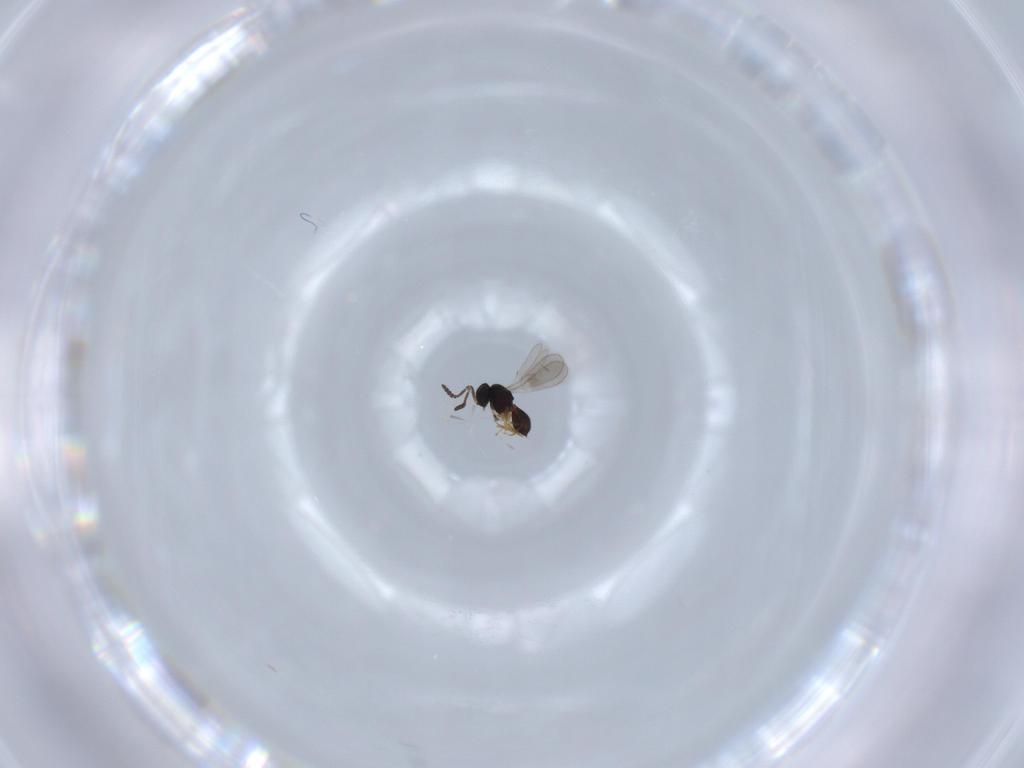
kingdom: Animalia
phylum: Arthropoda
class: Insecta
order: Hymenoptera
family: Scelionidae
